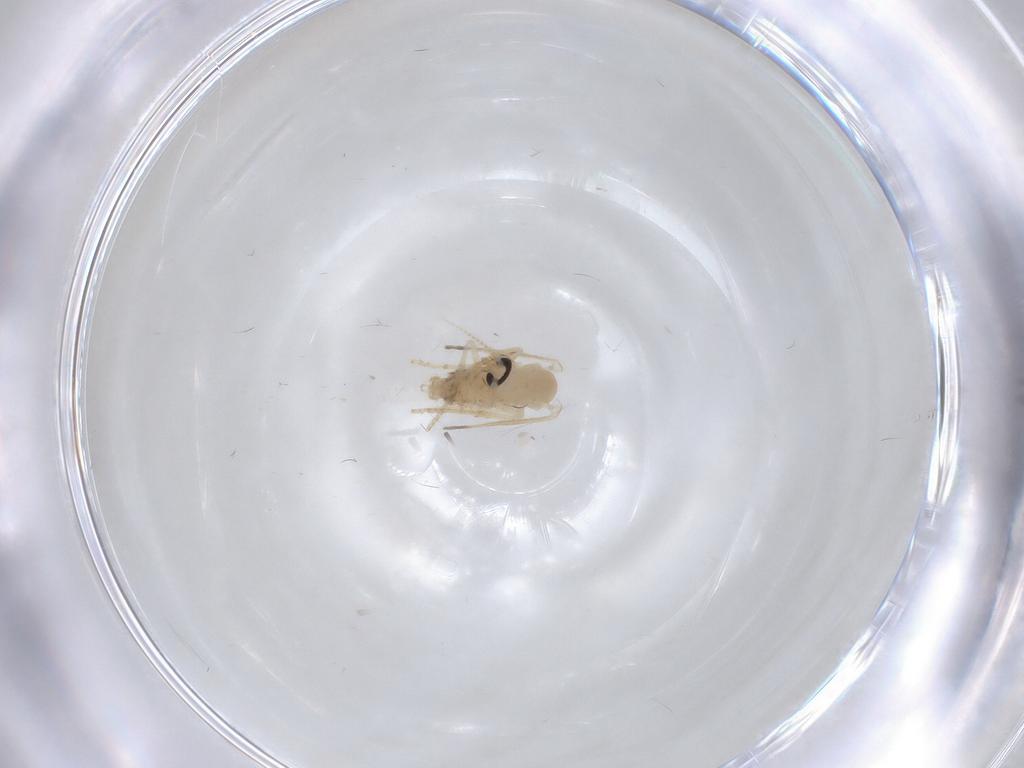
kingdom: Animalia
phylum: Arthropoda
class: Insecta
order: Diptera
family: Psychodidae
